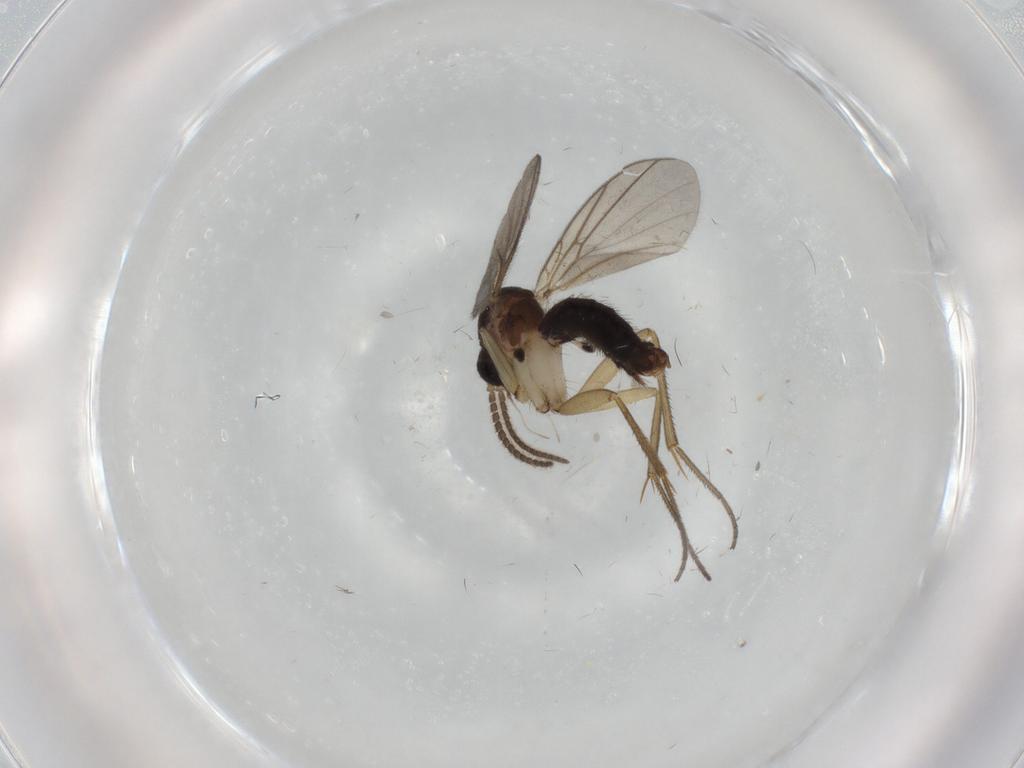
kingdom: Animalia
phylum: Arthropoda
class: Insecta
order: Diptera
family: Mycetophilidae
